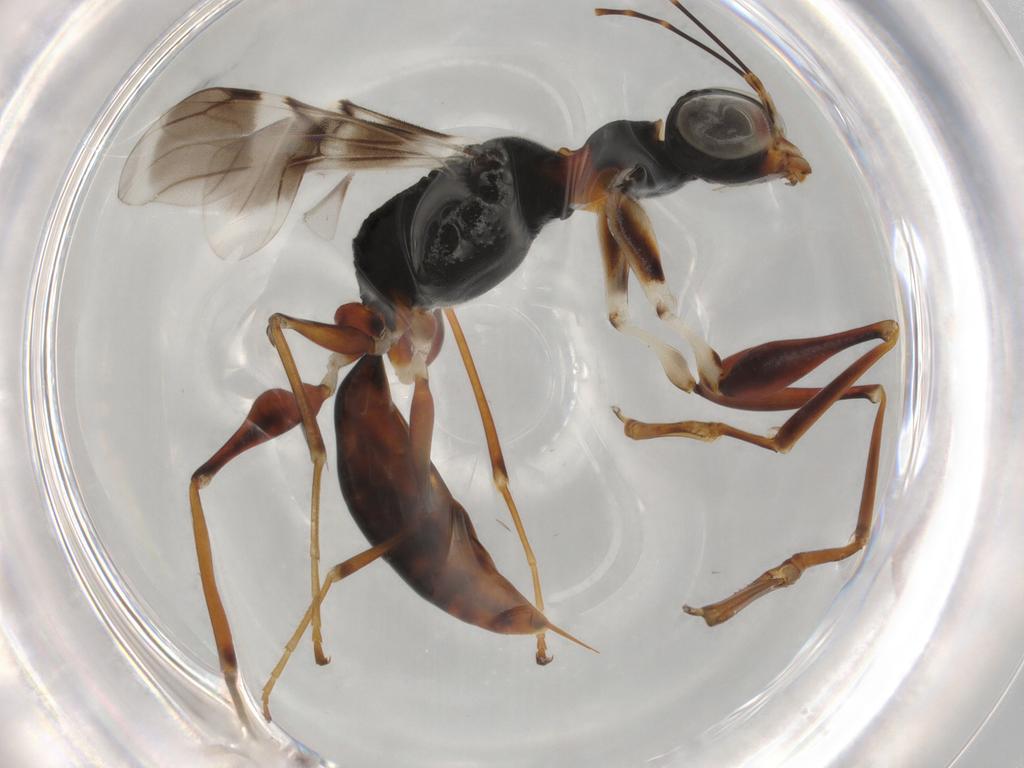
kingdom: Animalia
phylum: Arthropoda
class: Insecta
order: Hymenoptera
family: Dryinidae
